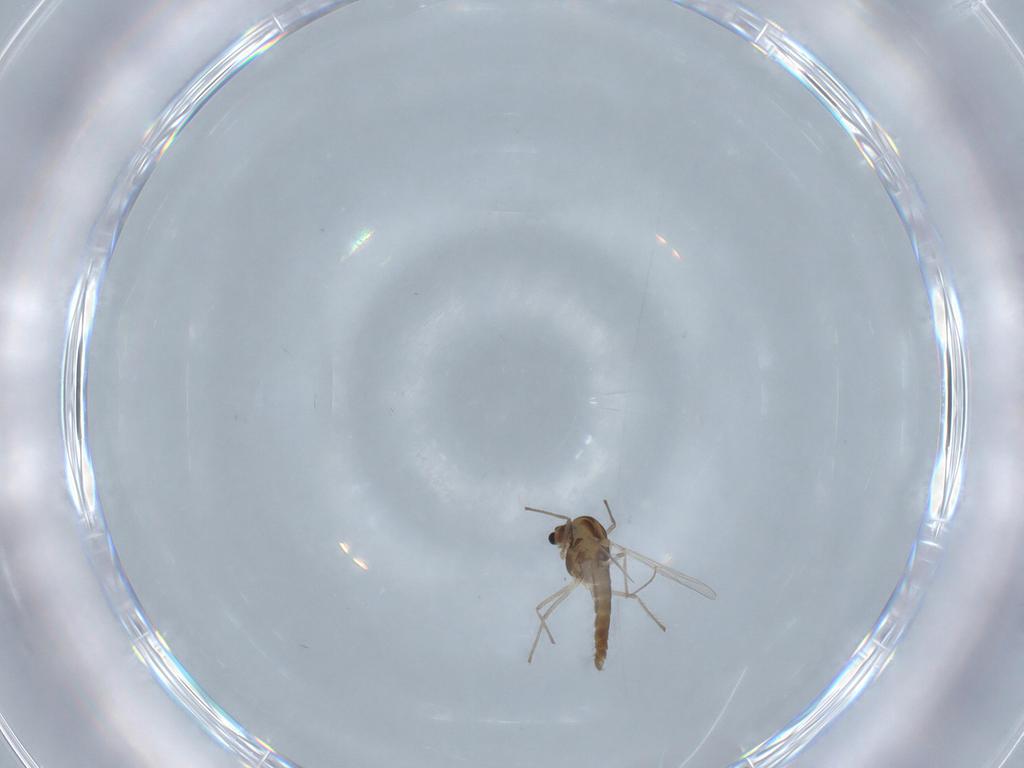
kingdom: Animalia
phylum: Arthropoda
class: Insecta
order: Diptera
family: Chironomidae
